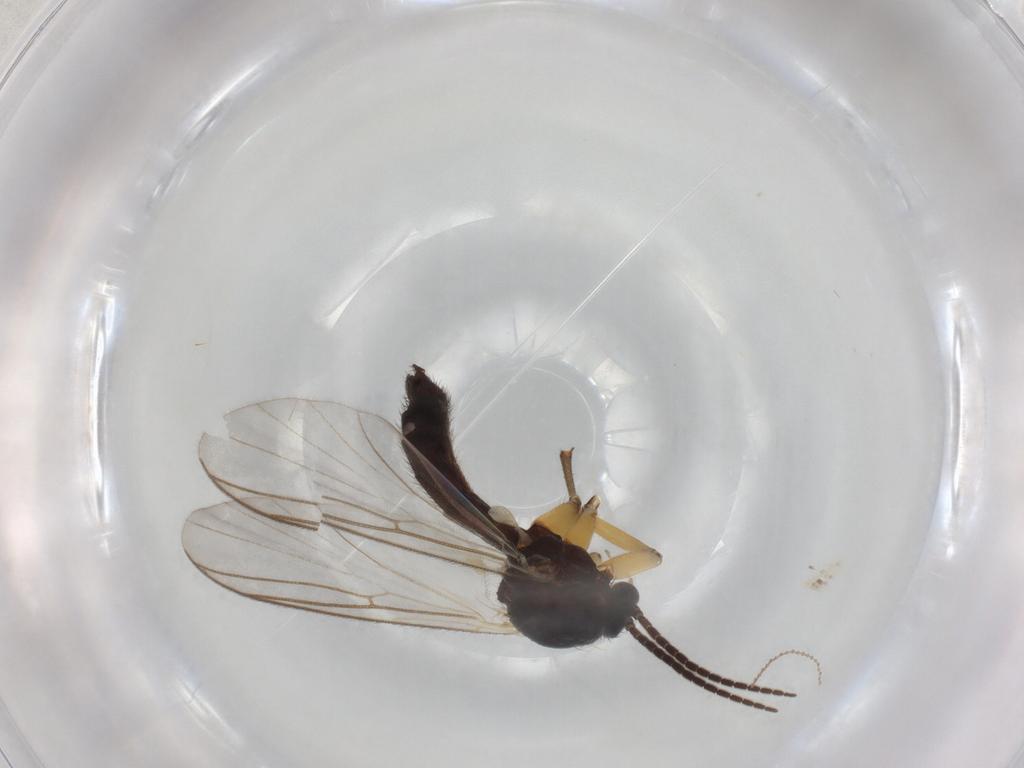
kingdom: Animalia
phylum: Arthropoda
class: Insecta
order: Diptera
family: Mycetophilidae
